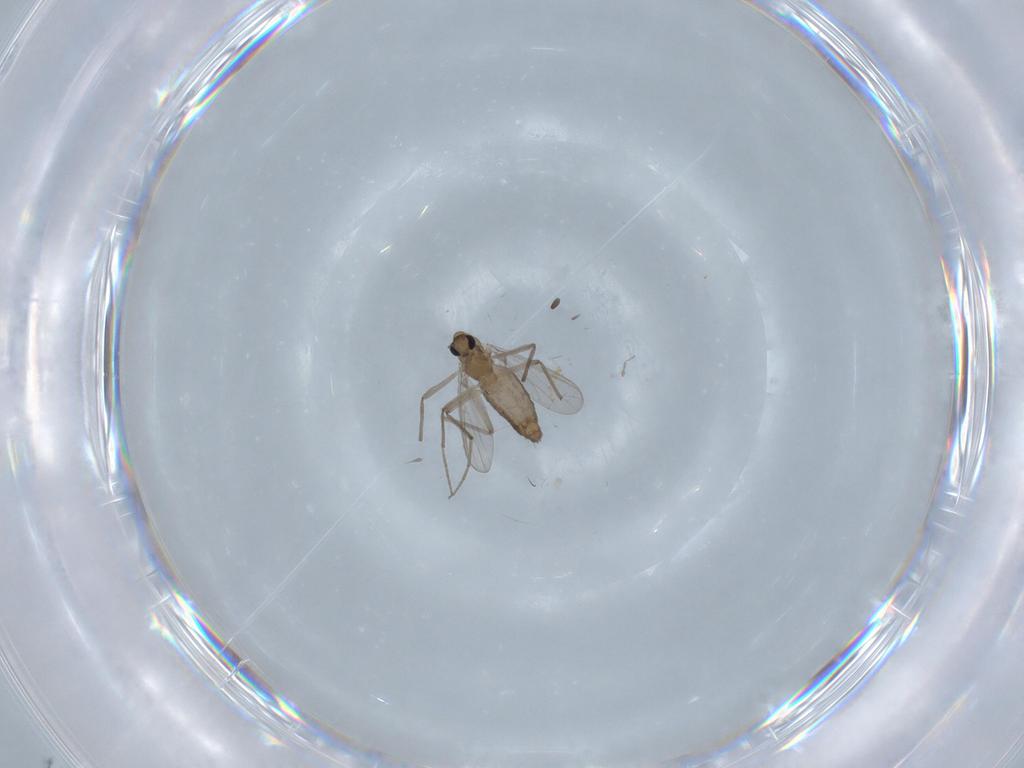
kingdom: Animalia
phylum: Arthropoda
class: Insecta
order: Diptera
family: Chironomidae
